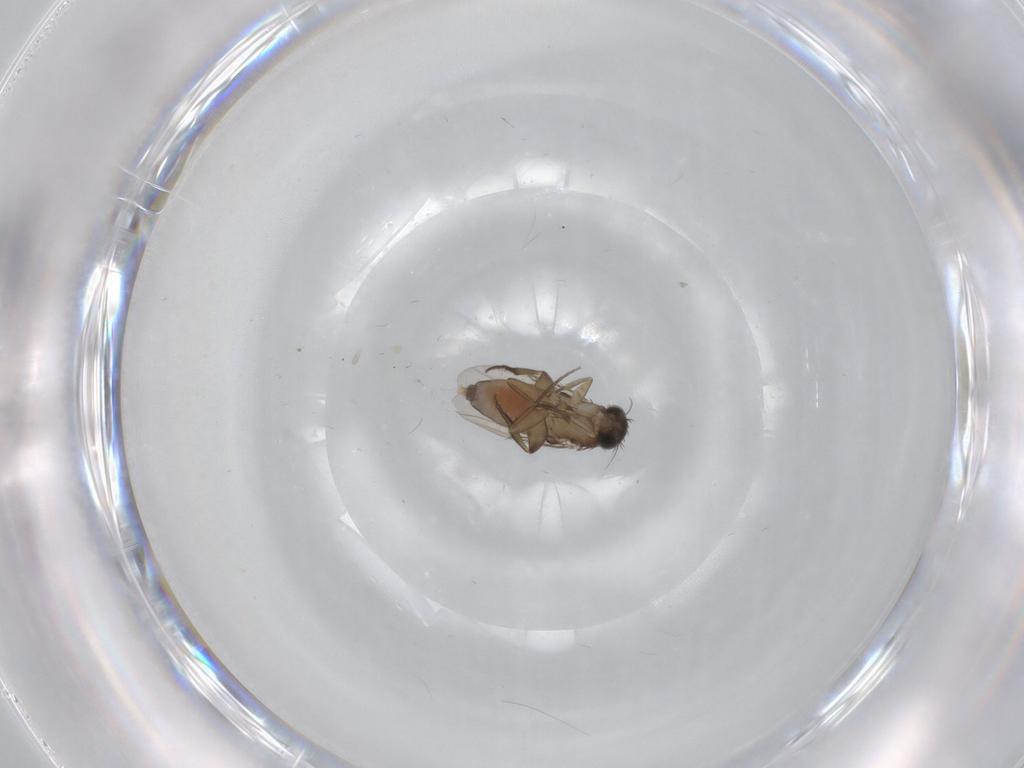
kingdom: Animalia
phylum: Arthropoda
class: Insecta
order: Diptera
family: Phoridae
